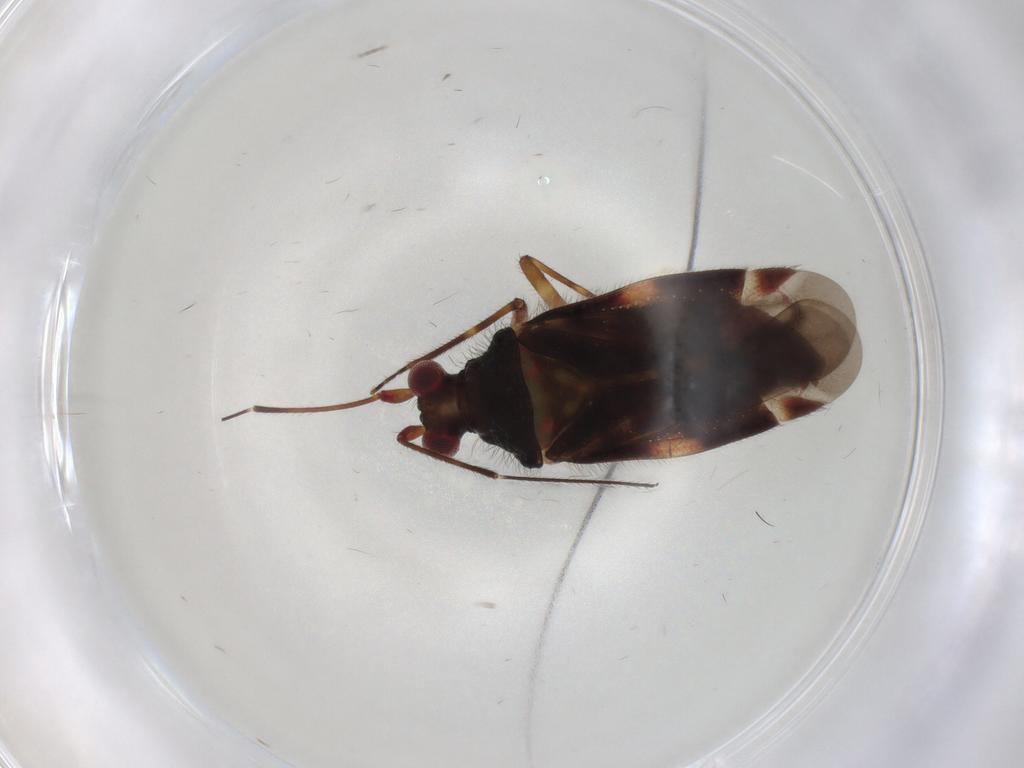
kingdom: Animalia
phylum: Arthropoda
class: Insecta
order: Hemiptera
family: Miridae
